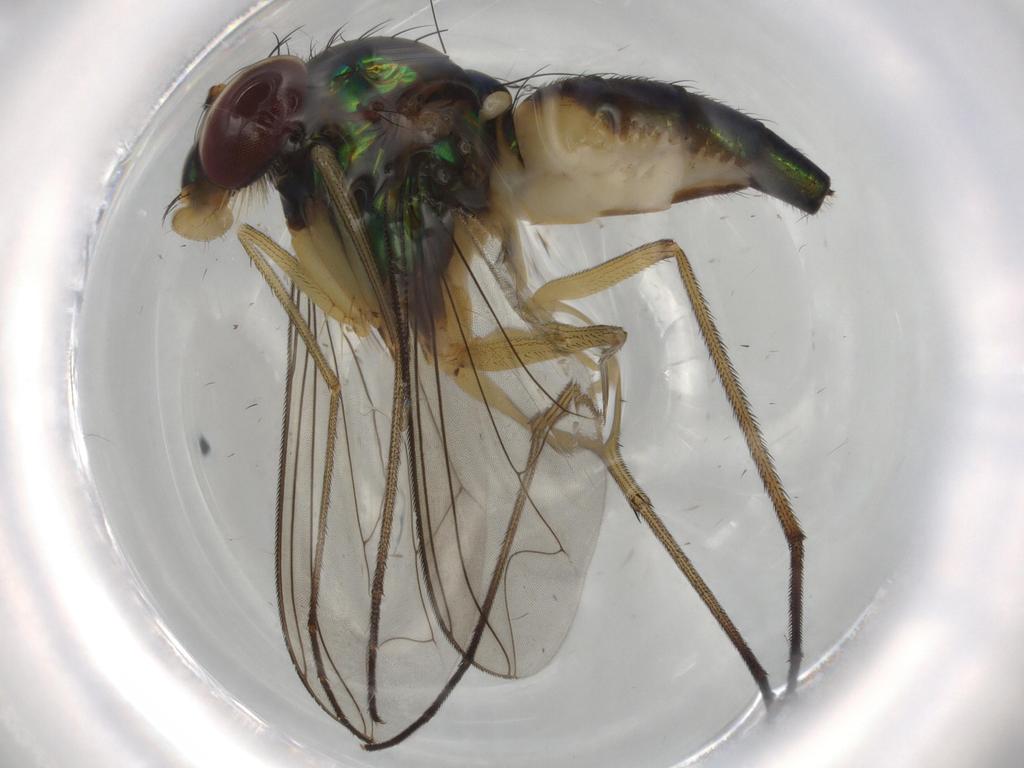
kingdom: Animalia
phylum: Arthropoda
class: Insecta
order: Diptera
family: Dolichopodidae
